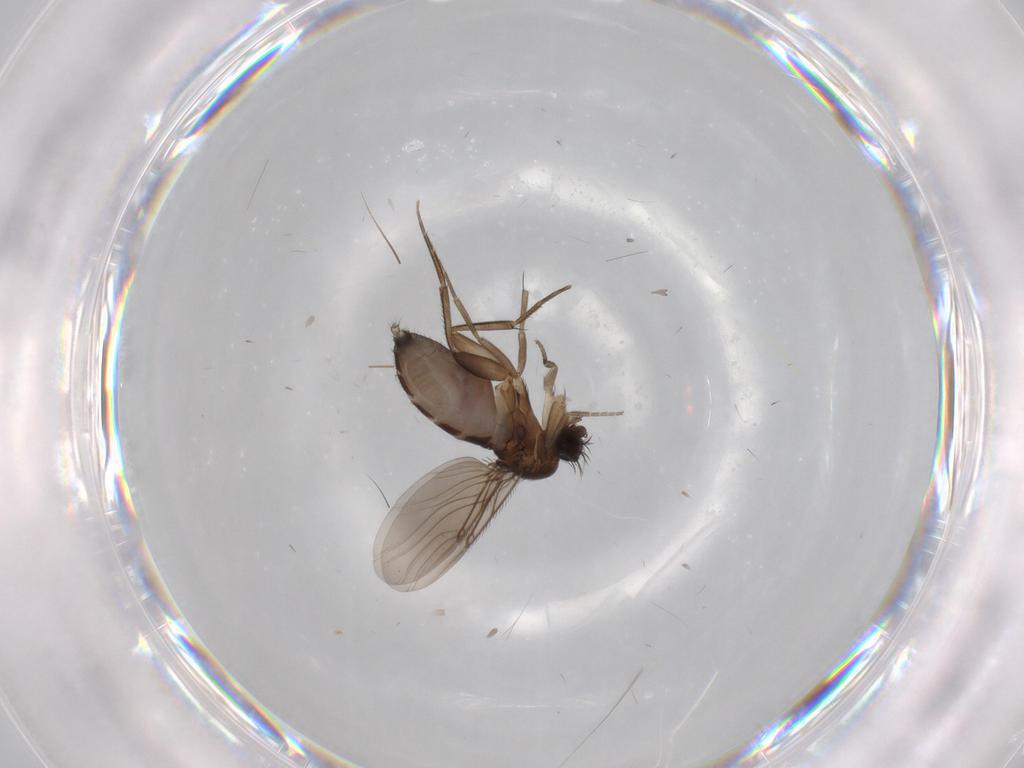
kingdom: Animalia
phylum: Arthropoda
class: Insecta
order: Diptera
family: Phoridae
